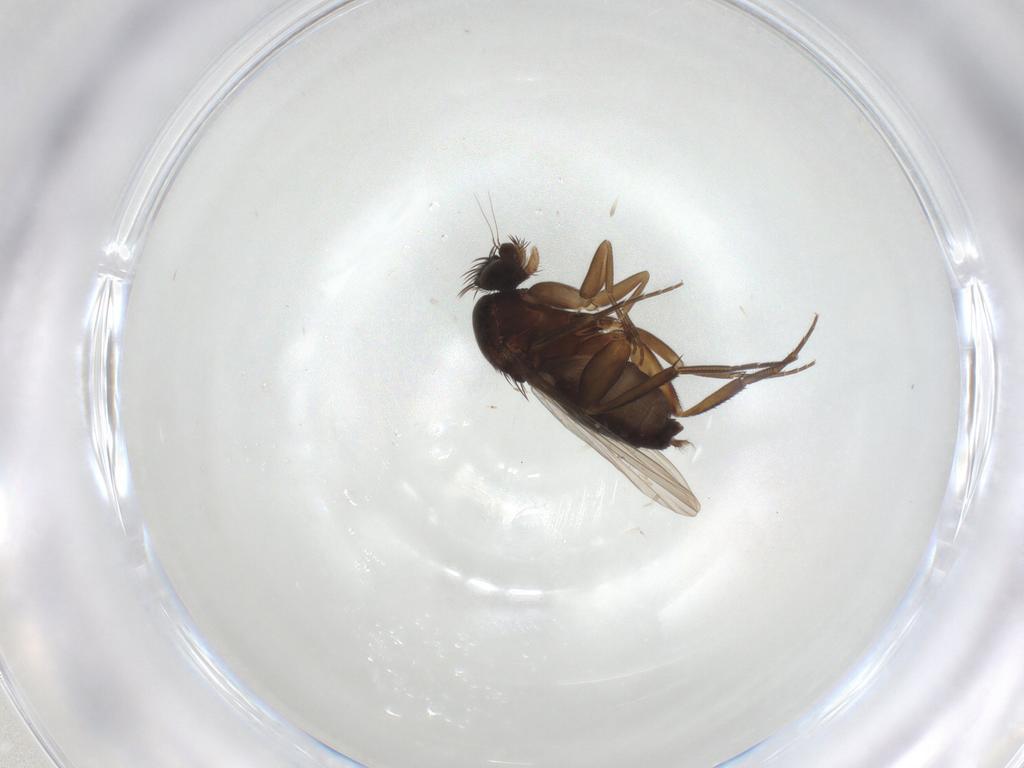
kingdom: Animalia
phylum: Arthropoda
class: Insecta
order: Diptera
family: Phoridae
